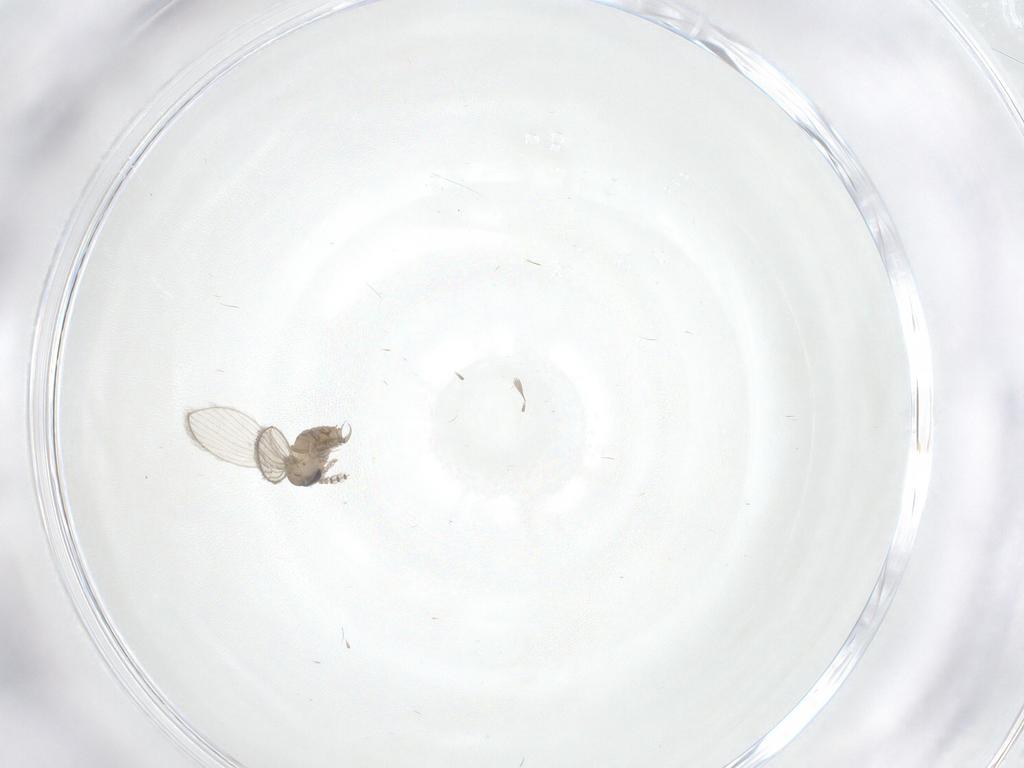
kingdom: Animalia
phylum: Arthropoda
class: Insecta
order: Diptera
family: Psychodidae
